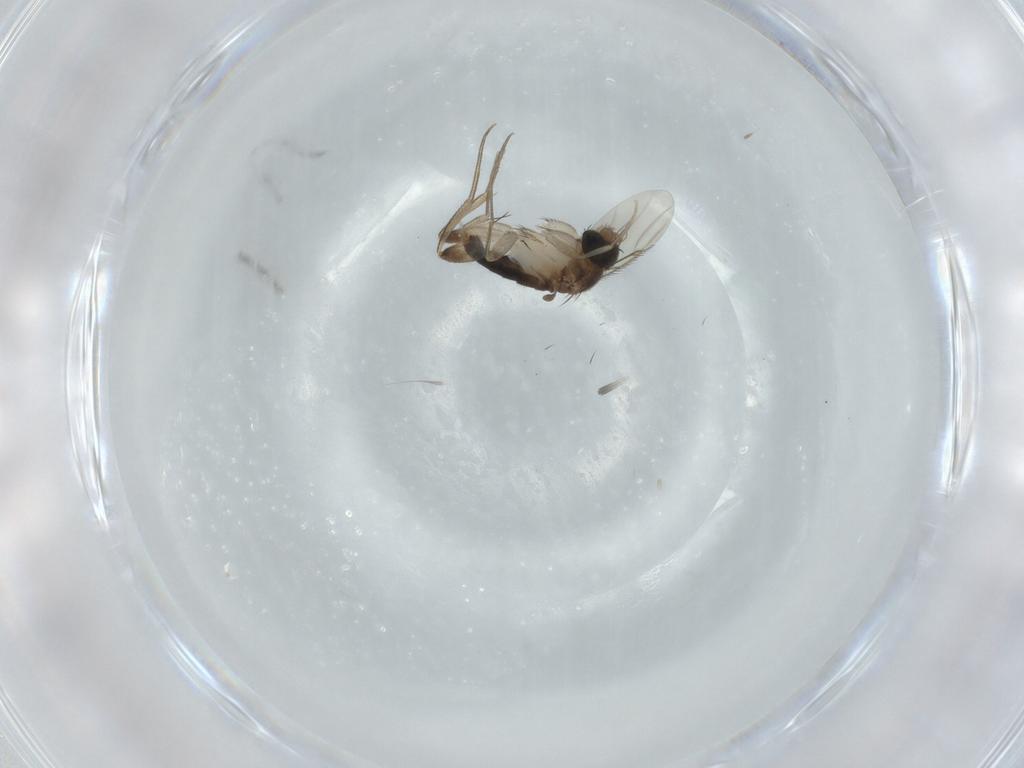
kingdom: Animalia
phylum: Arthropoda
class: Insecta
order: Diptera
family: Phoridae
